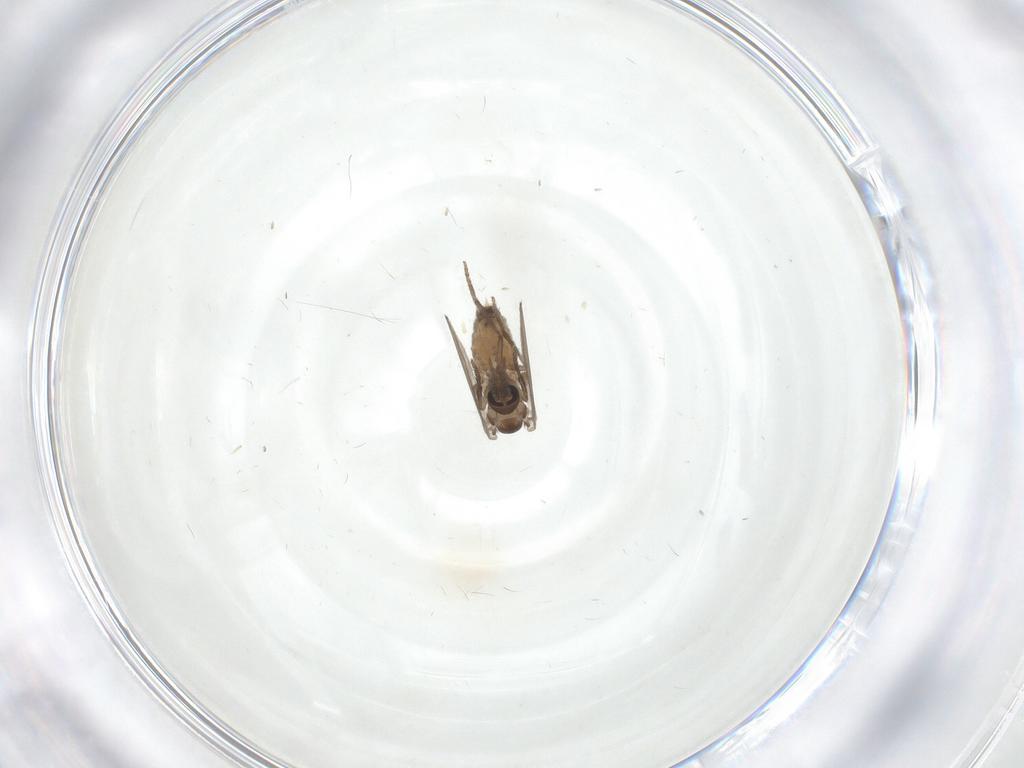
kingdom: Animalia
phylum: Arthropoda
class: Insecta
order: Diptera
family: Psychodidae
